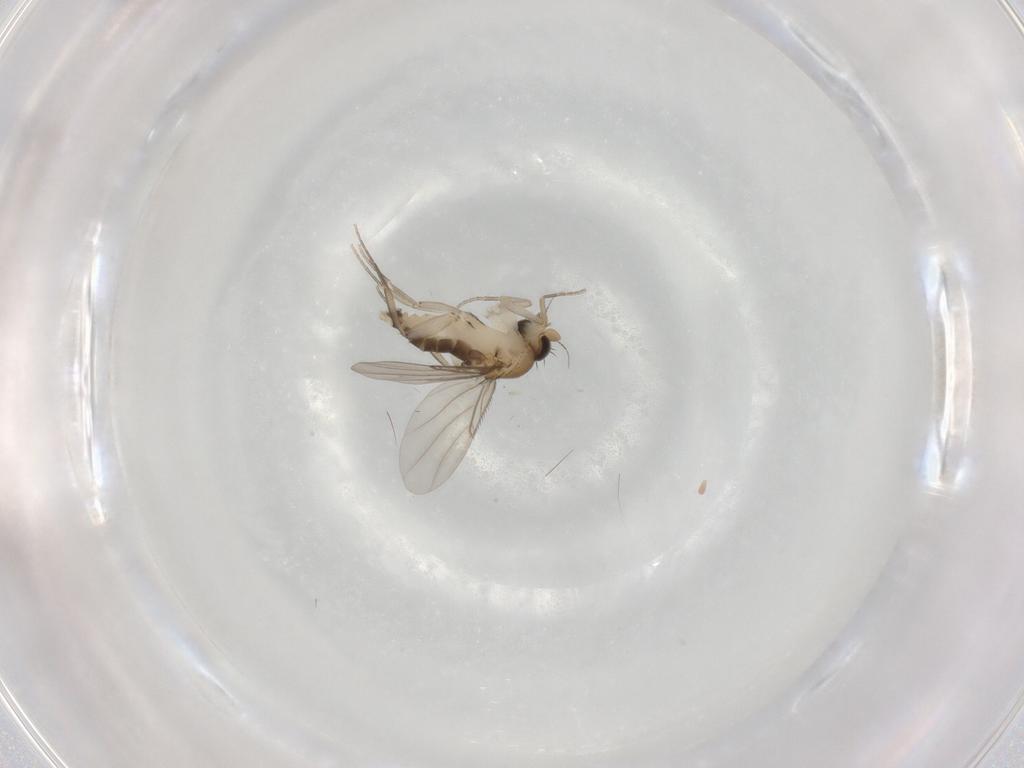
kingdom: Animalia
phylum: Arthropoda
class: Insecta
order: Diptera
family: Phoridae
